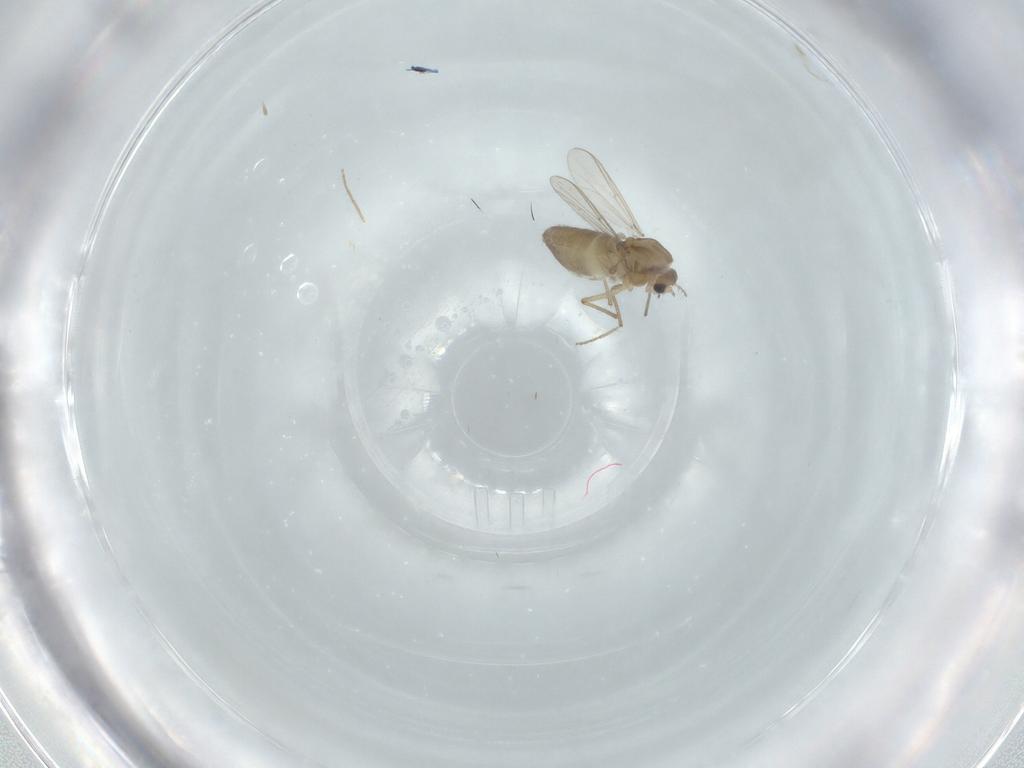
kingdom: Animalia
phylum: Arthropoda
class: Insecta
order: Diptera
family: Chironomidae
